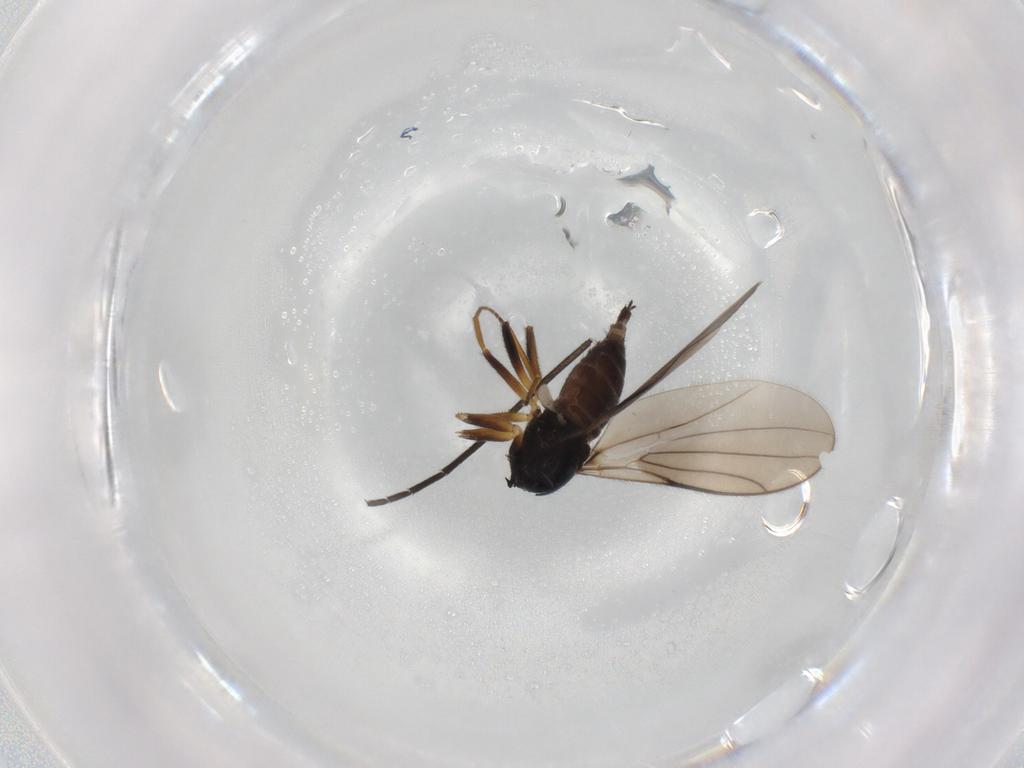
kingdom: Animalia
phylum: Arthropoda
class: Insecta
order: Diptera
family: Hybotidae
